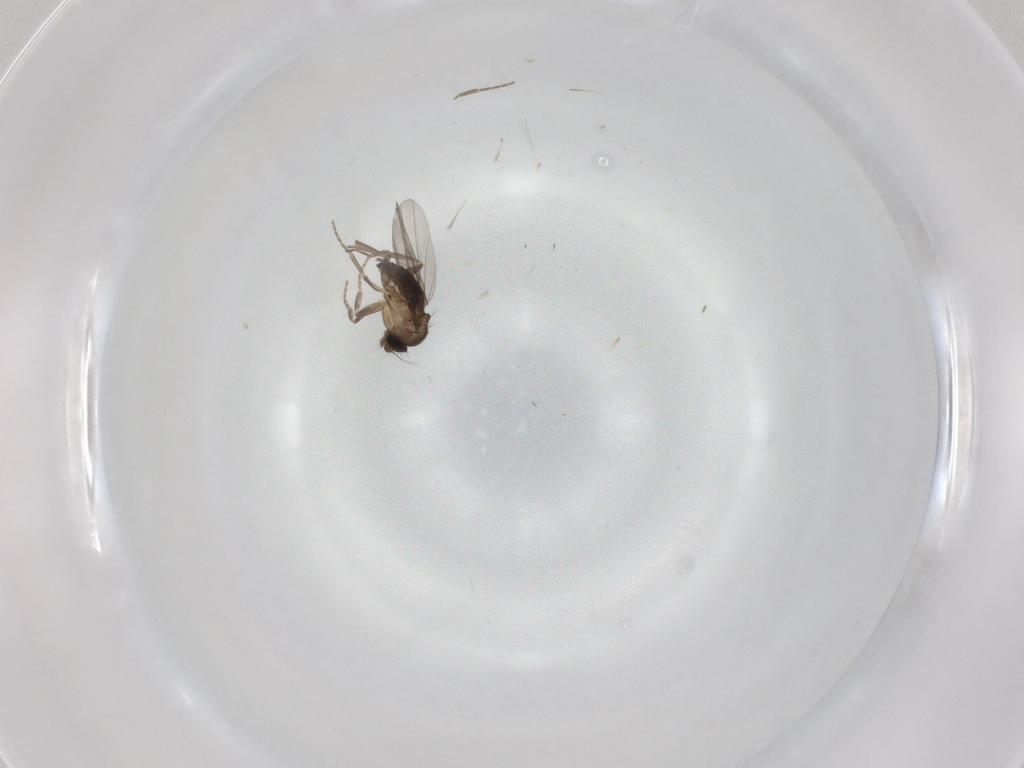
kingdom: Animalia
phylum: Arthropoda
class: Insecta
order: Diptera
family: Phoridae
